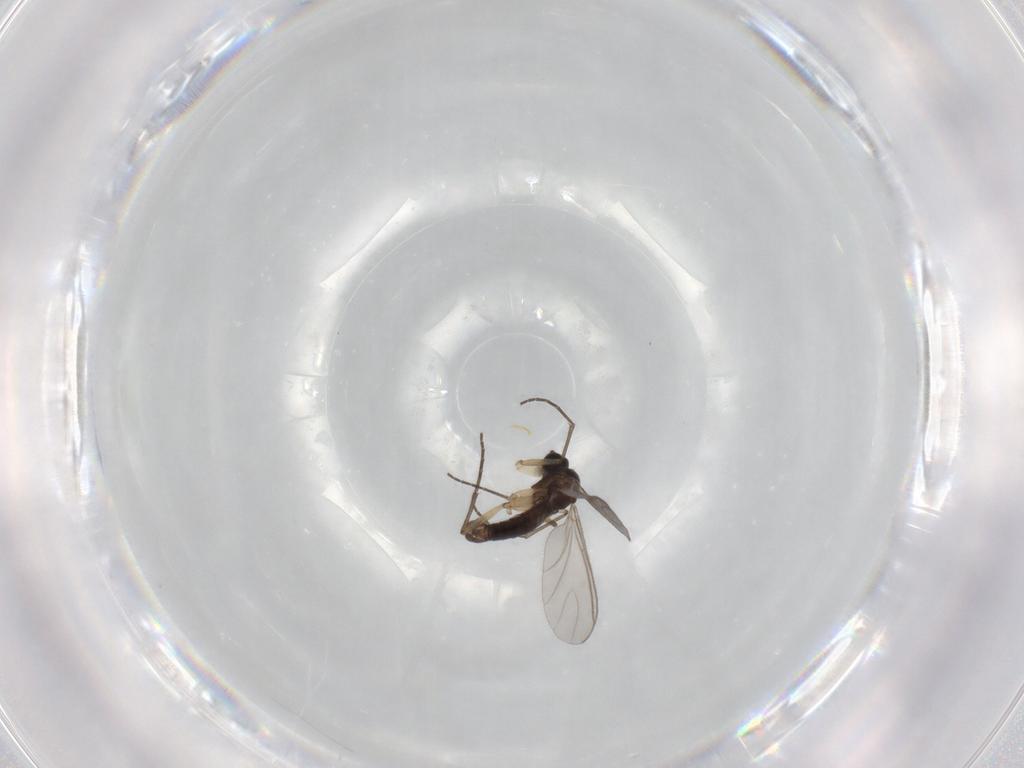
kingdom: Animalia
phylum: Arthropoda
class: Insecta
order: Diptera
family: Sciaridae
